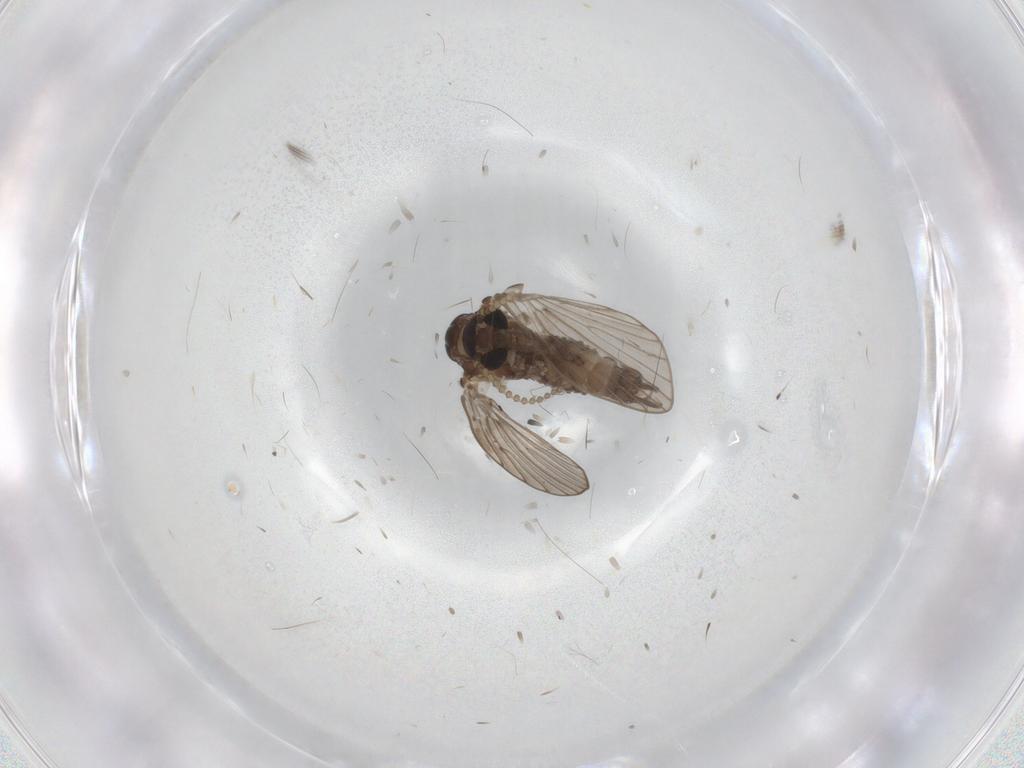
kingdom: Animalia
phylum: Arthropoda
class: Insecta
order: Diptera
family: Psychodidae
